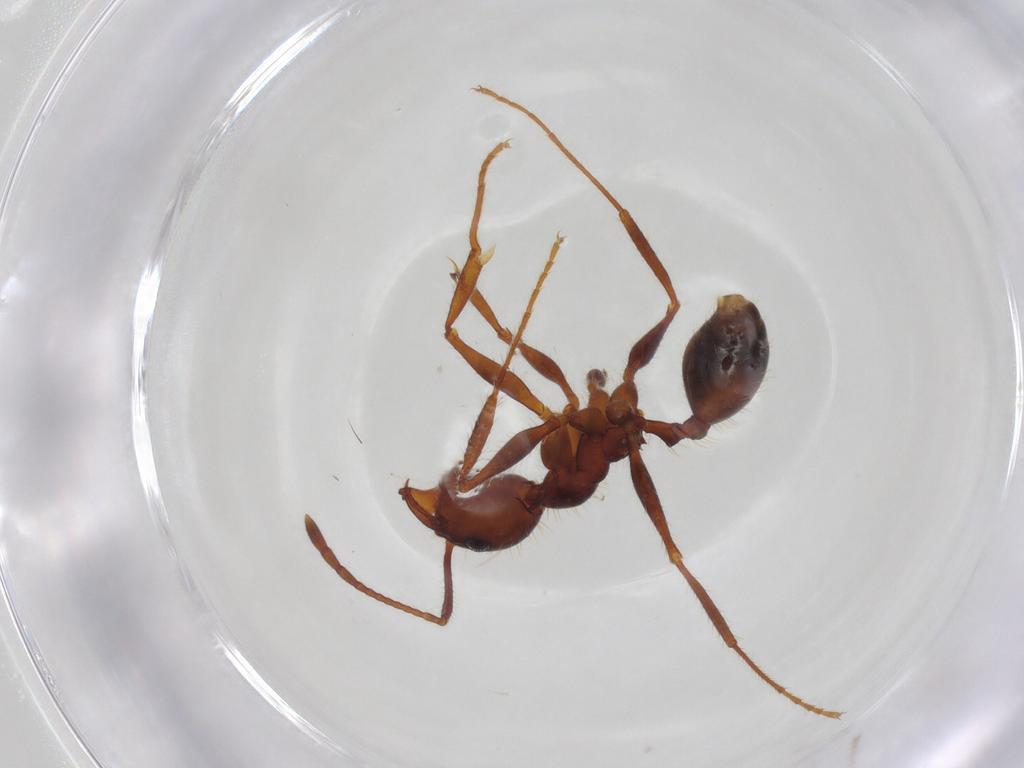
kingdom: Animalia
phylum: Arthropoda
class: Insecta
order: Hymenoptera
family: Formicidae
